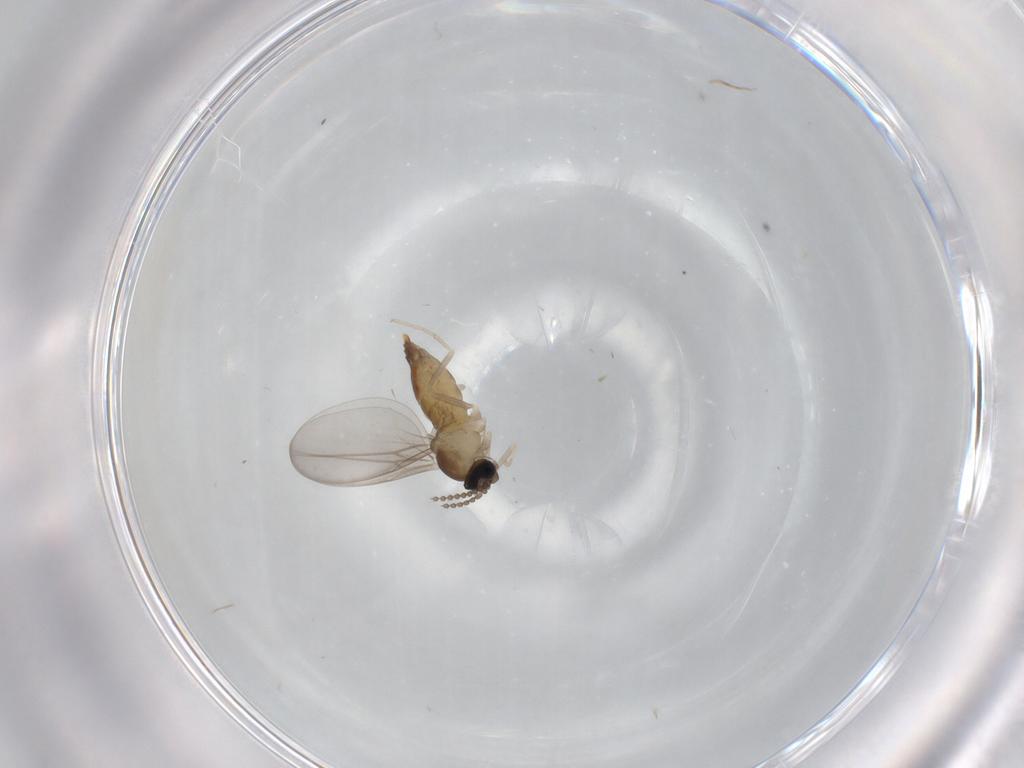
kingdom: Animalia
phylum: Arthropoda
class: Insecta
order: Diptera
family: Cecidomyiidae
